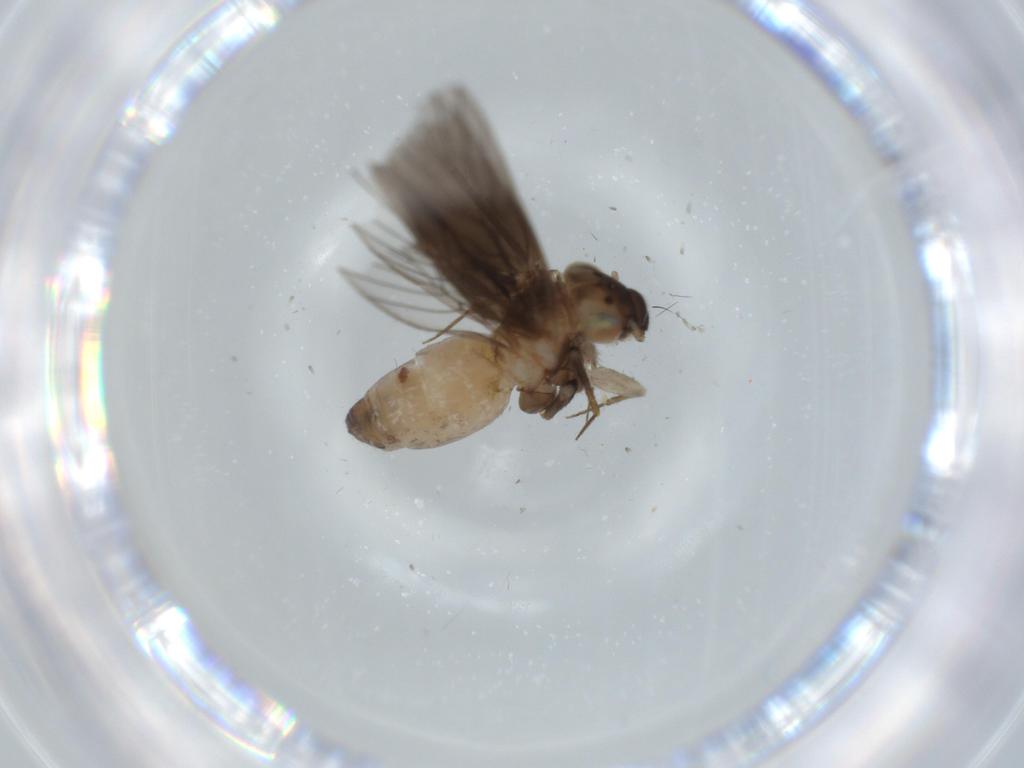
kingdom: Animalia
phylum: Arthropoda
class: Insecta
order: Psocodea
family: Lepidopsocidae
